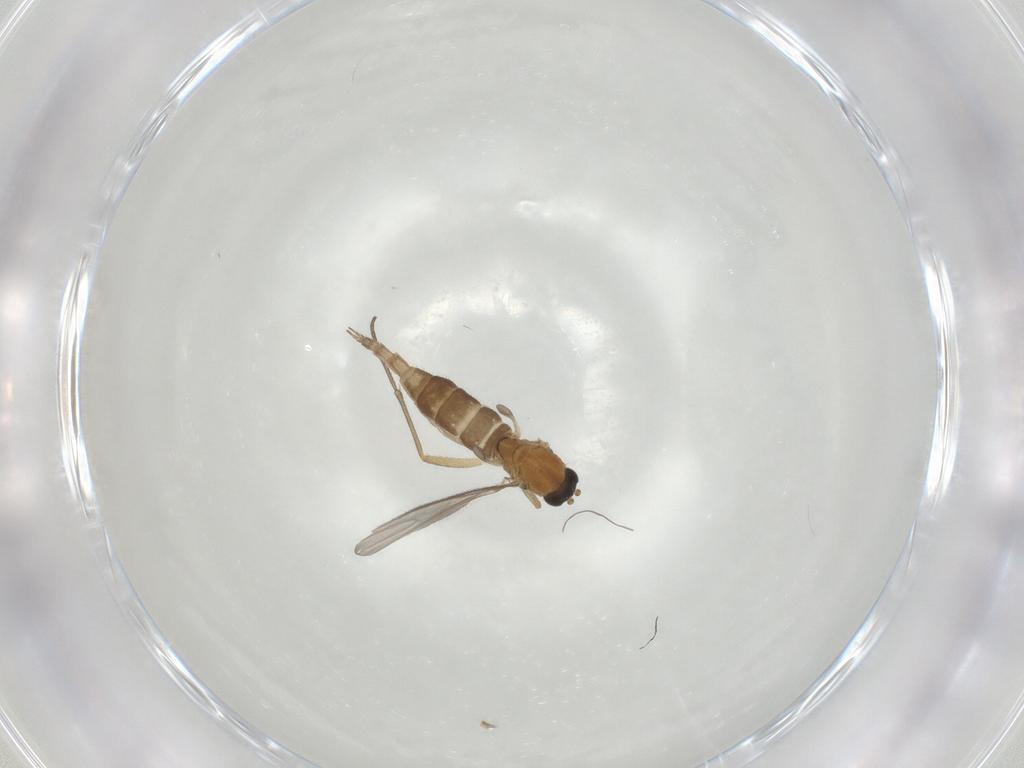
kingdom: Animalia
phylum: Arthropoda
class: Insecta
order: Diptera
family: Sciaridae
